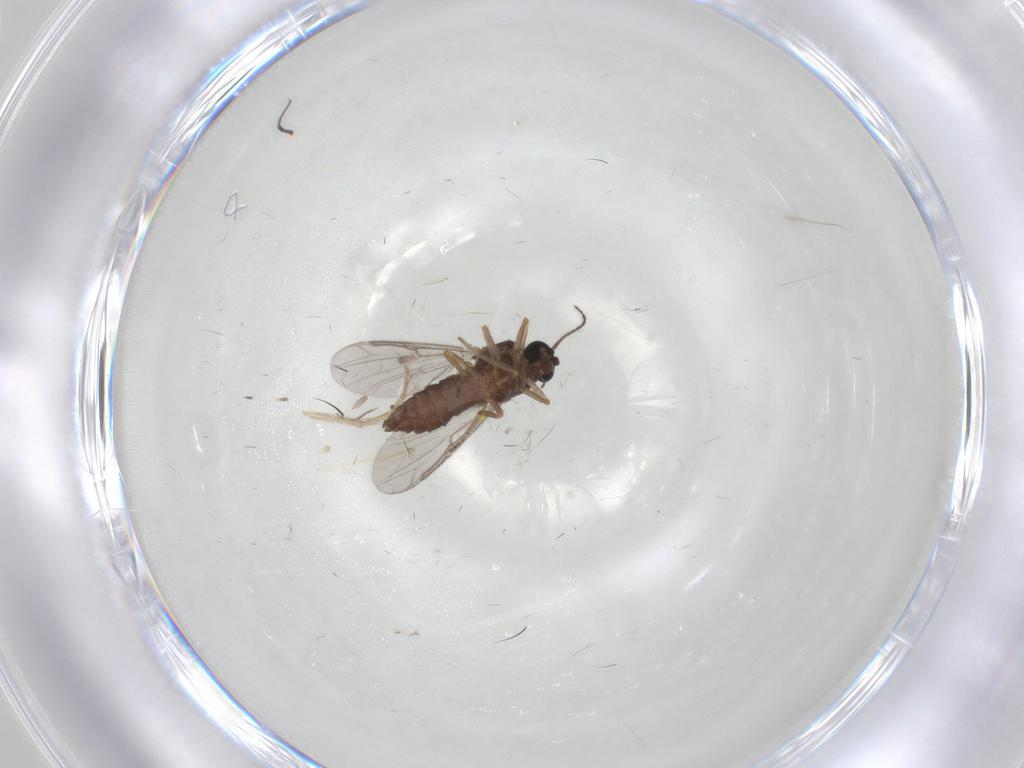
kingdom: Animalia
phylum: Arthropoda
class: Insecta
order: Diptera
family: Ceratopogonidae
